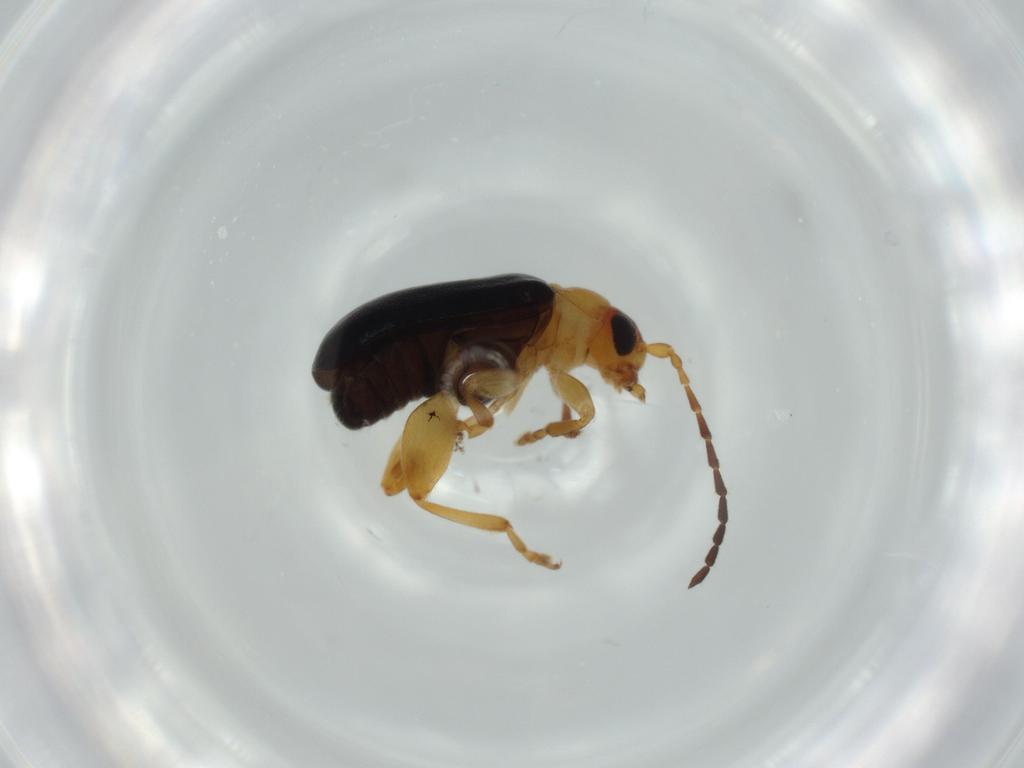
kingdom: Animalia
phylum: Arthropoda
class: Insecta
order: Coleoptera
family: Chrysomelidae
